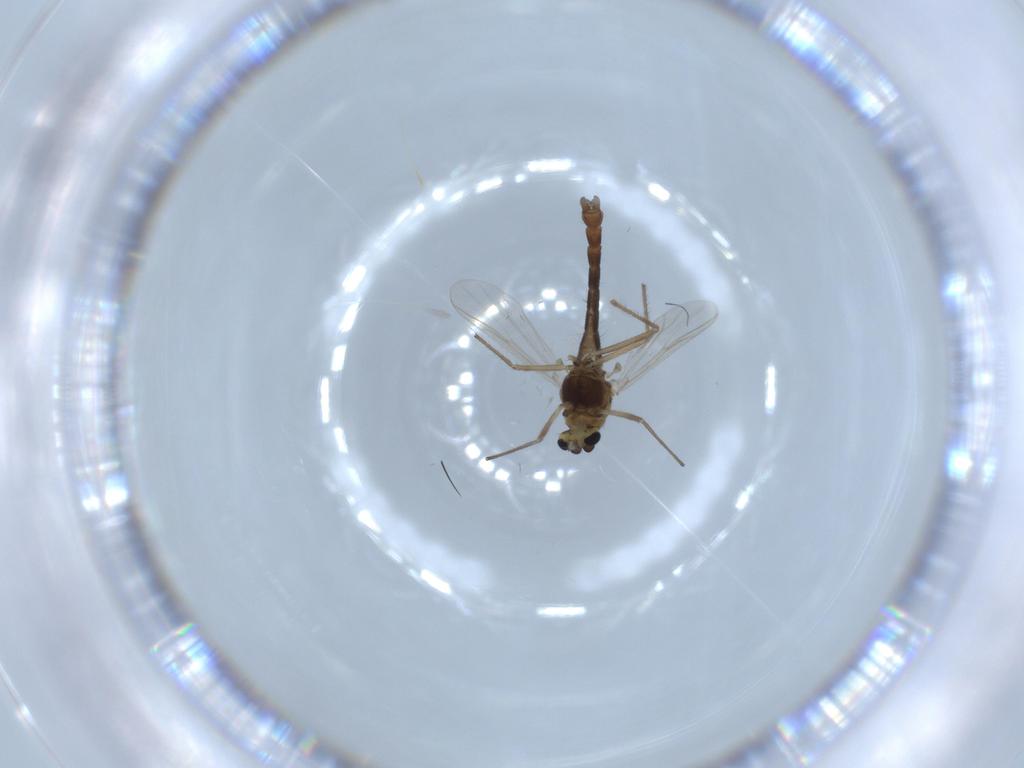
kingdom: Animalia
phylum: Arthropoda
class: Insecta
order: Diptera
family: Chironomidae
